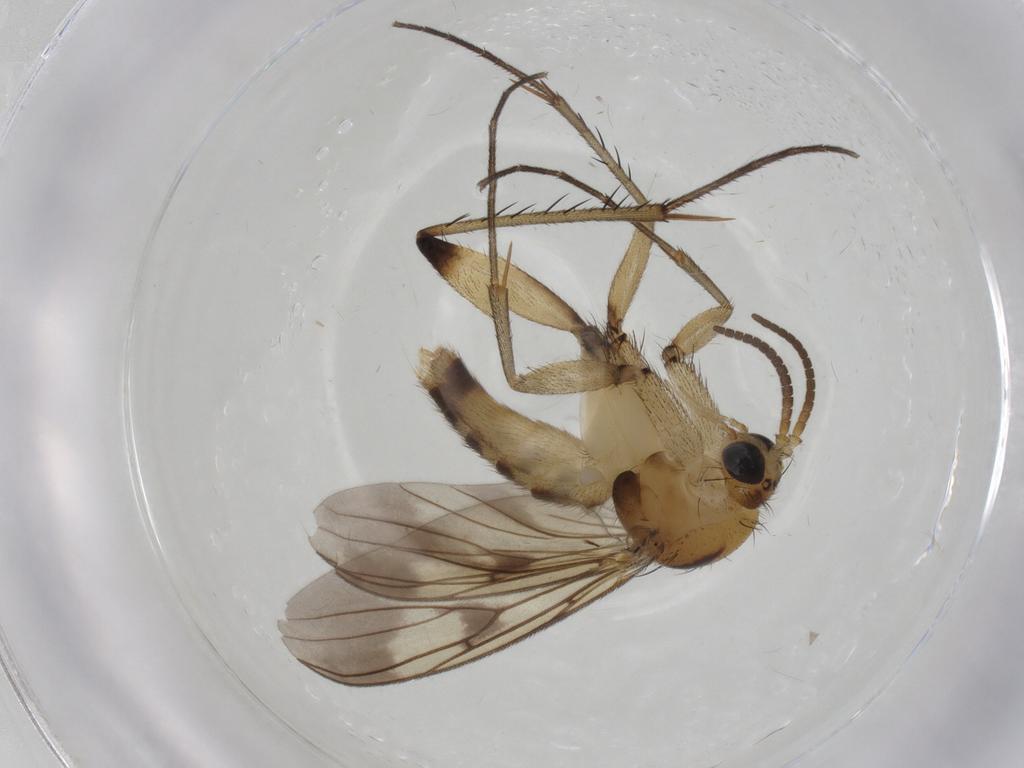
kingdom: Animalia
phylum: Arthropoda
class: Insecta
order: Diptera
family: Mycetophilidae
